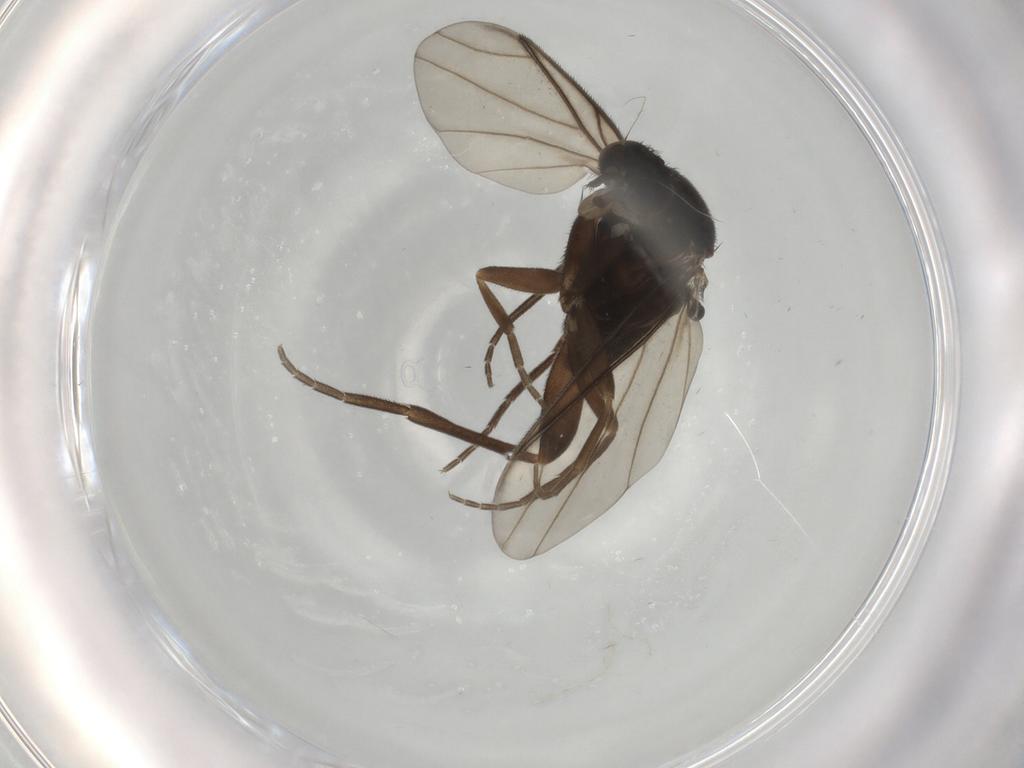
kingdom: Animalia
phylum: Arthropoda
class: Insecta
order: Diptera
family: Phoridae
